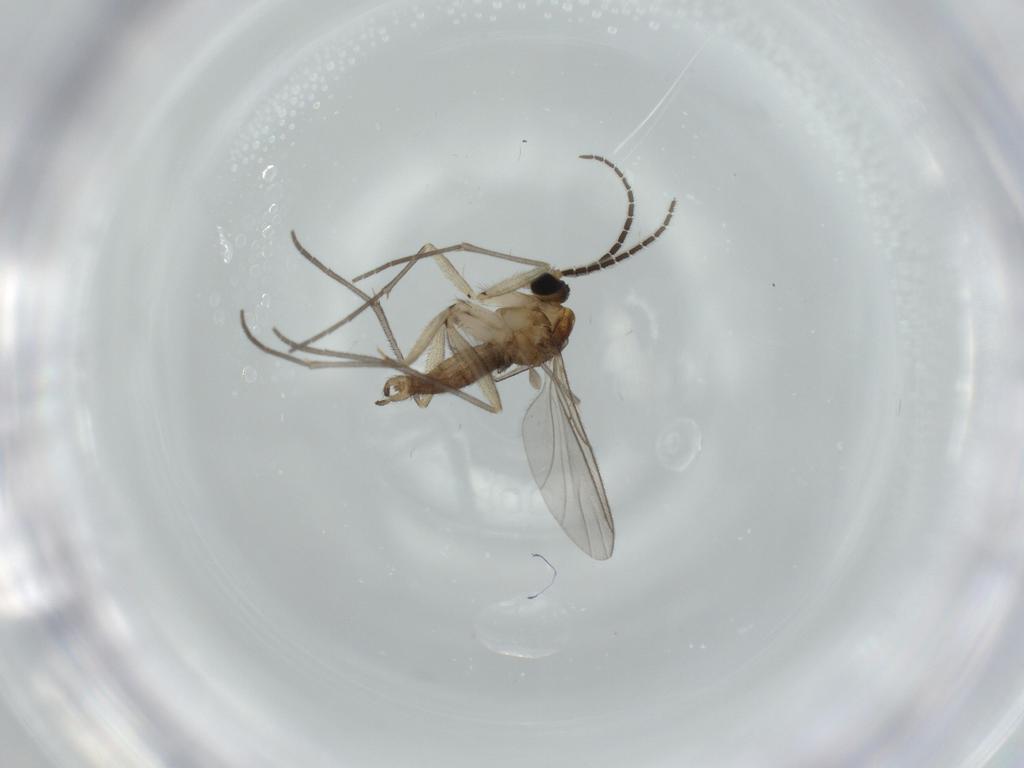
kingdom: Animalia
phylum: Arthropoda
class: Insecta
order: Diptera
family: Sciaridae
